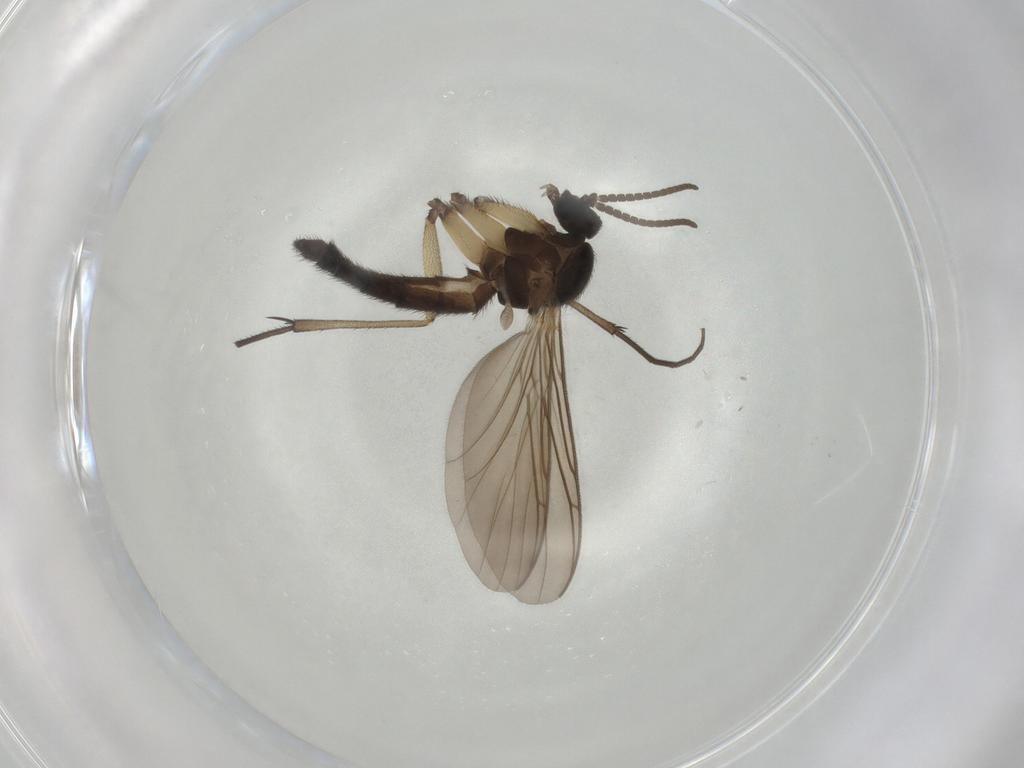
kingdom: Animalia
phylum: Arthropoda
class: Insecta
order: Diptera
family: Keroplatidae
